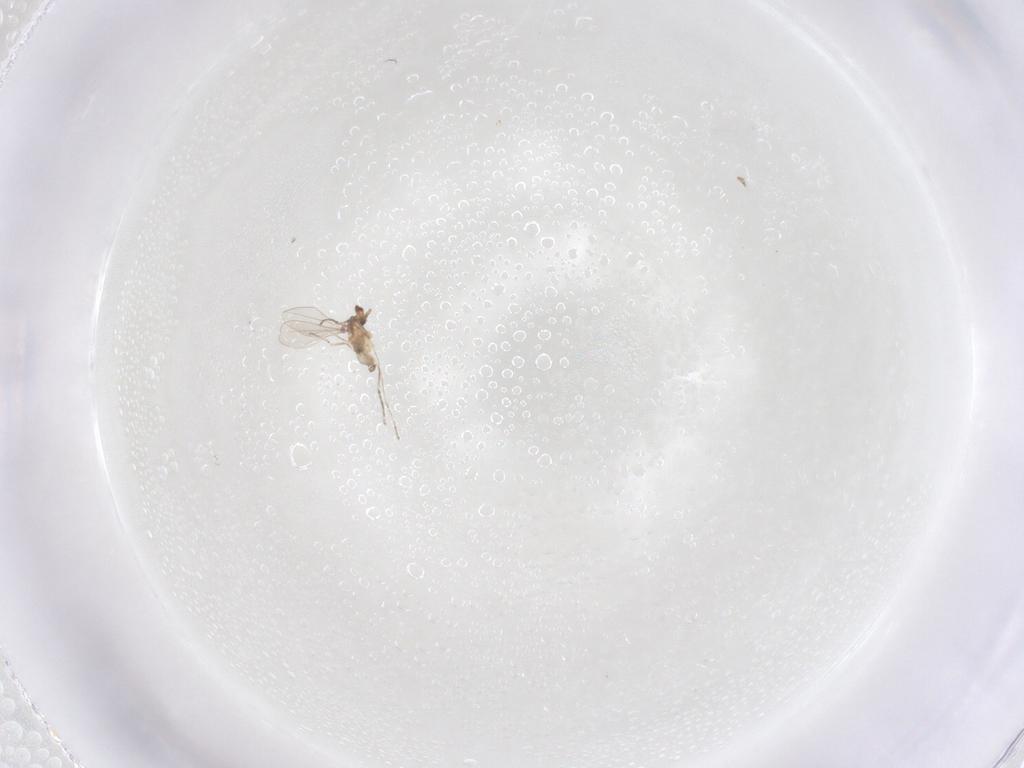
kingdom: Animalia
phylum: Arthropoda
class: Insecta
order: Diptera
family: Cecidomyiidae
